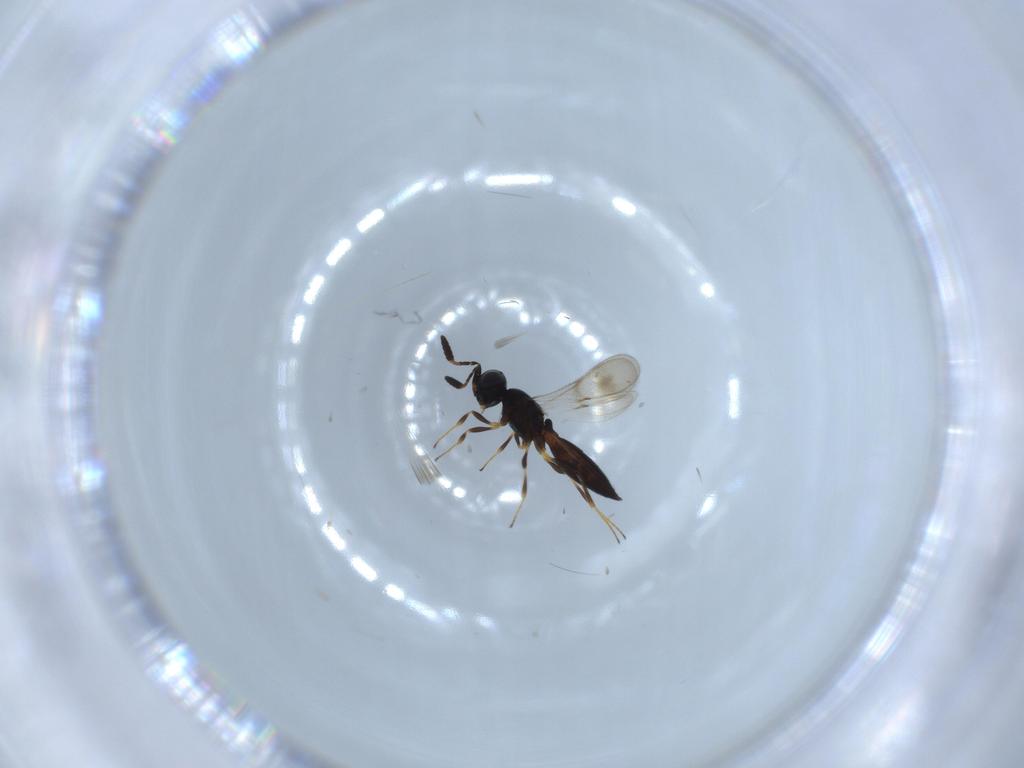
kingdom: Animalia
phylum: Arthropoda
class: Insecta
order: Hymenoptera
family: Scelionidae
